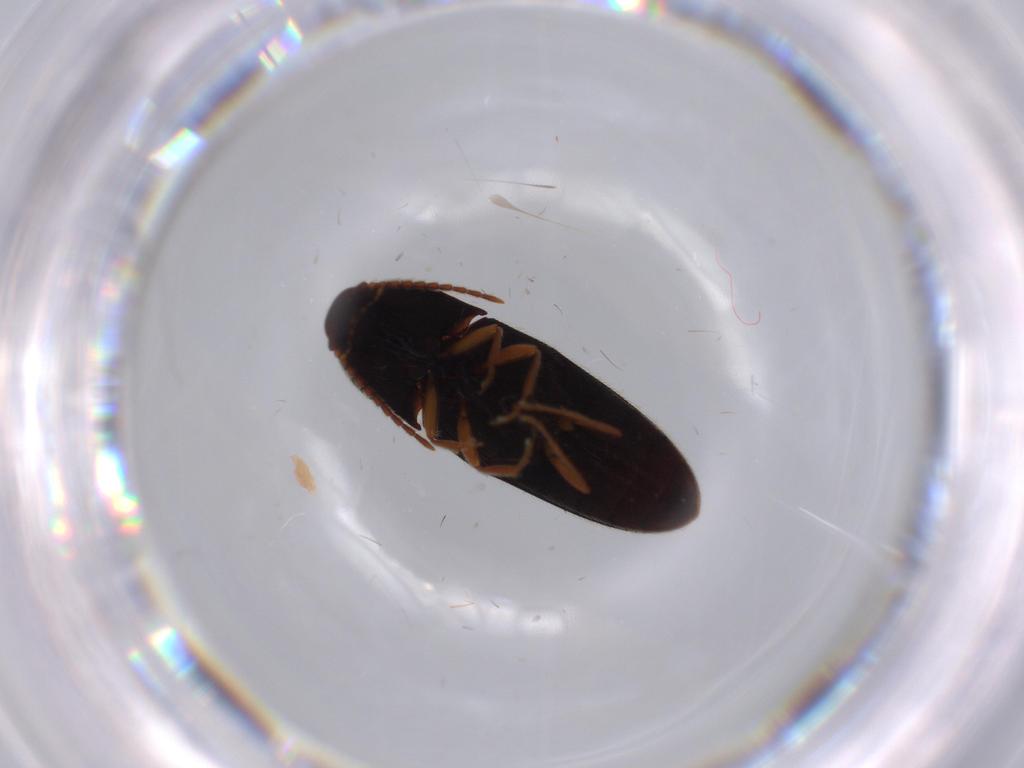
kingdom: Animalia
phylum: Arthropoda
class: Insecta
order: Coleoptera
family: Elateridae
